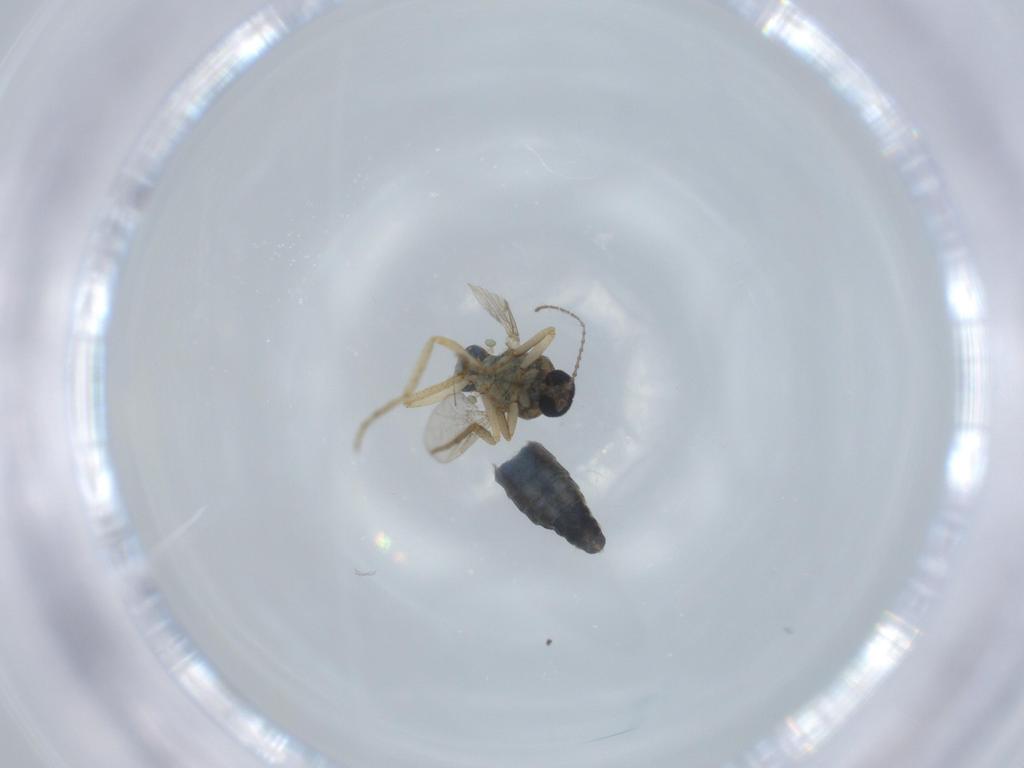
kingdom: Animalia
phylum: Arthropoda
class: Insecta
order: Diptera
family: Ceratopogonidae
